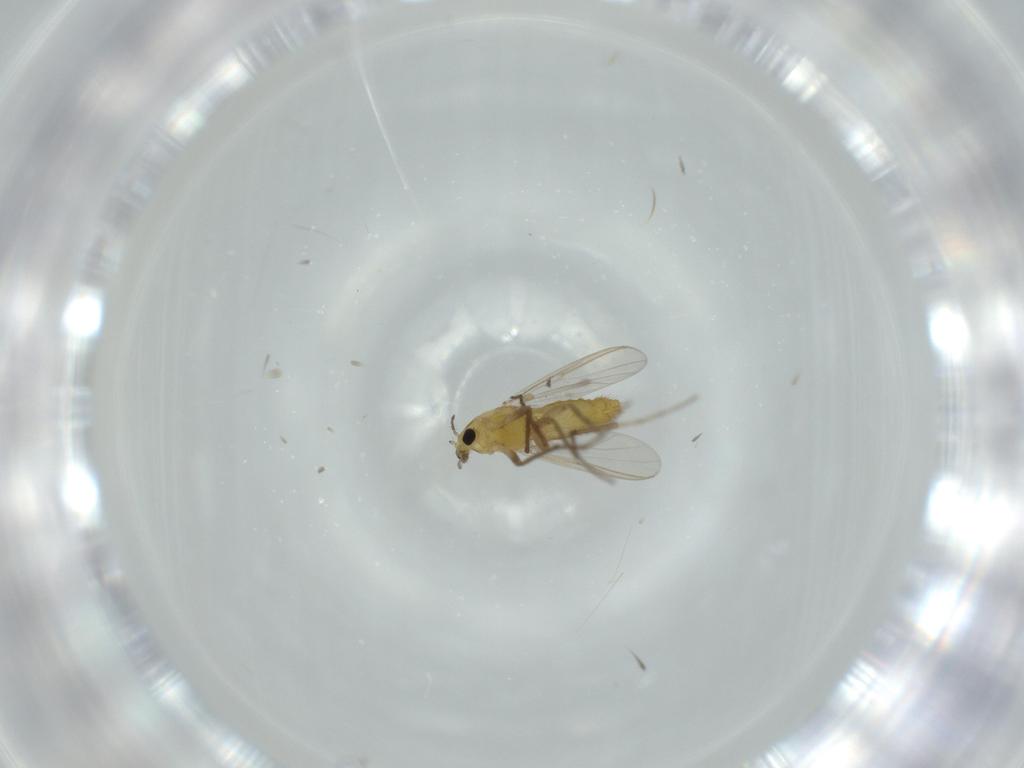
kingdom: Animalia
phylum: Arthropoda
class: Insecta
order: Diptera
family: Chironomidae
